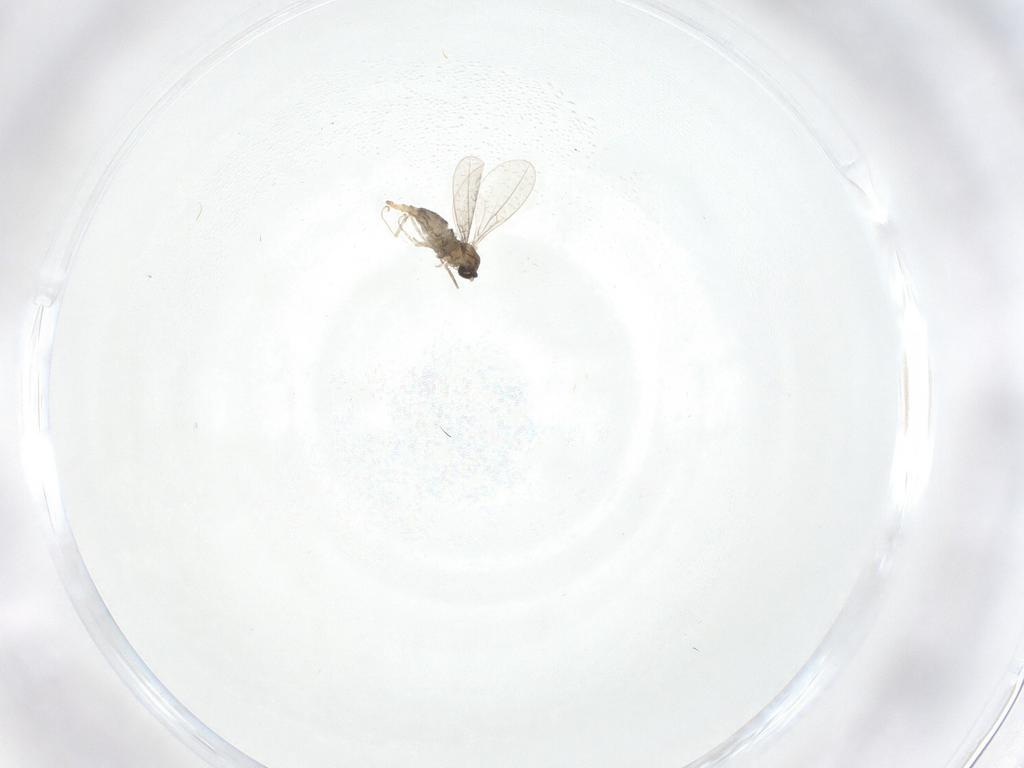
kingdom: Animalia
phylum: Arthropoda
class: Insecta
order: Diptera
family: Cecidomyiidae
